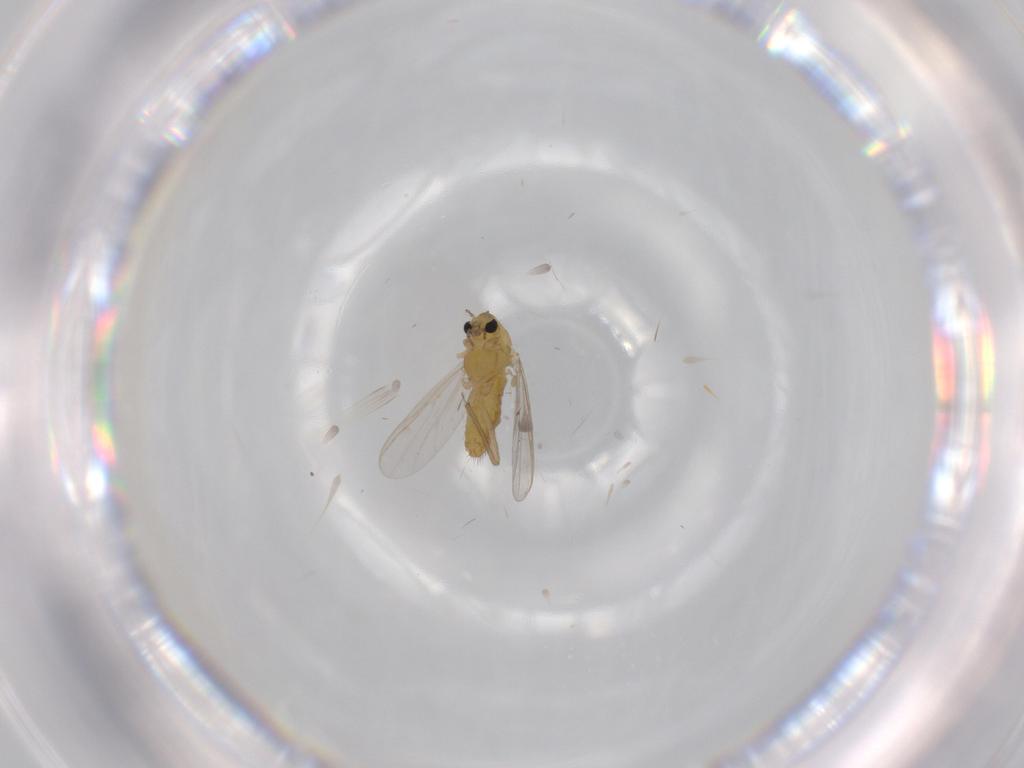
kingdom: Animalia
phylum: Arthropoda
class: Insecta
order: Diptera
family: Chironomidae
